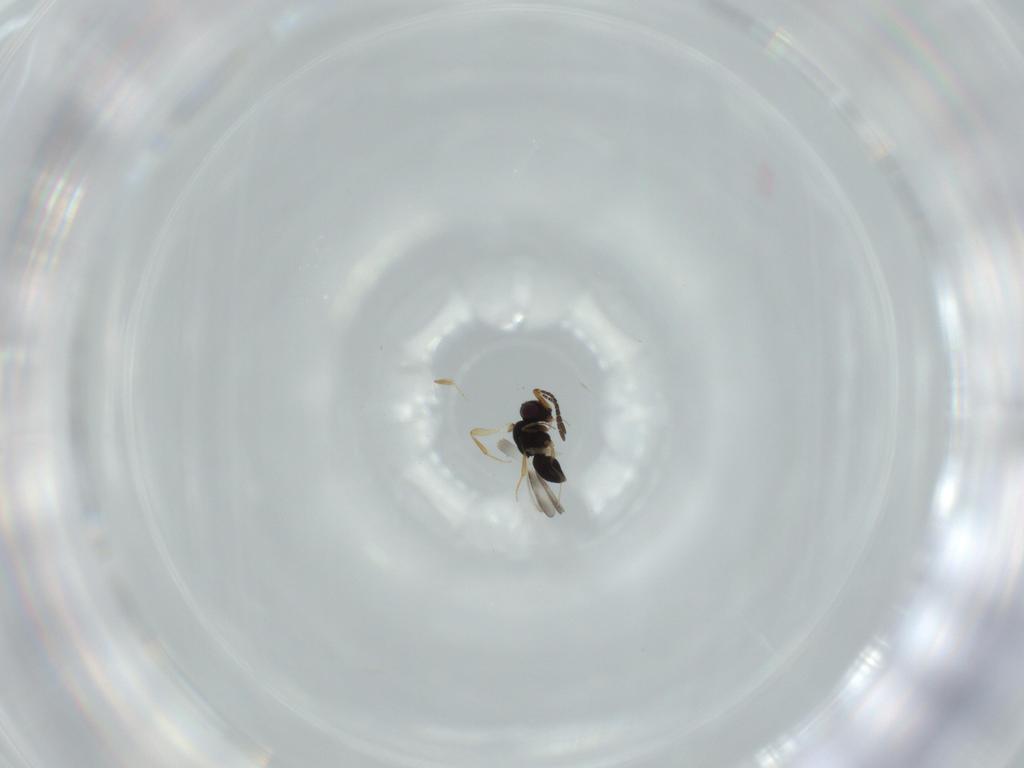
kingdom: Animalia
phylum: Arthropoda
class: Insecta
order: Hymenoptera
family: Ceraphronidae
